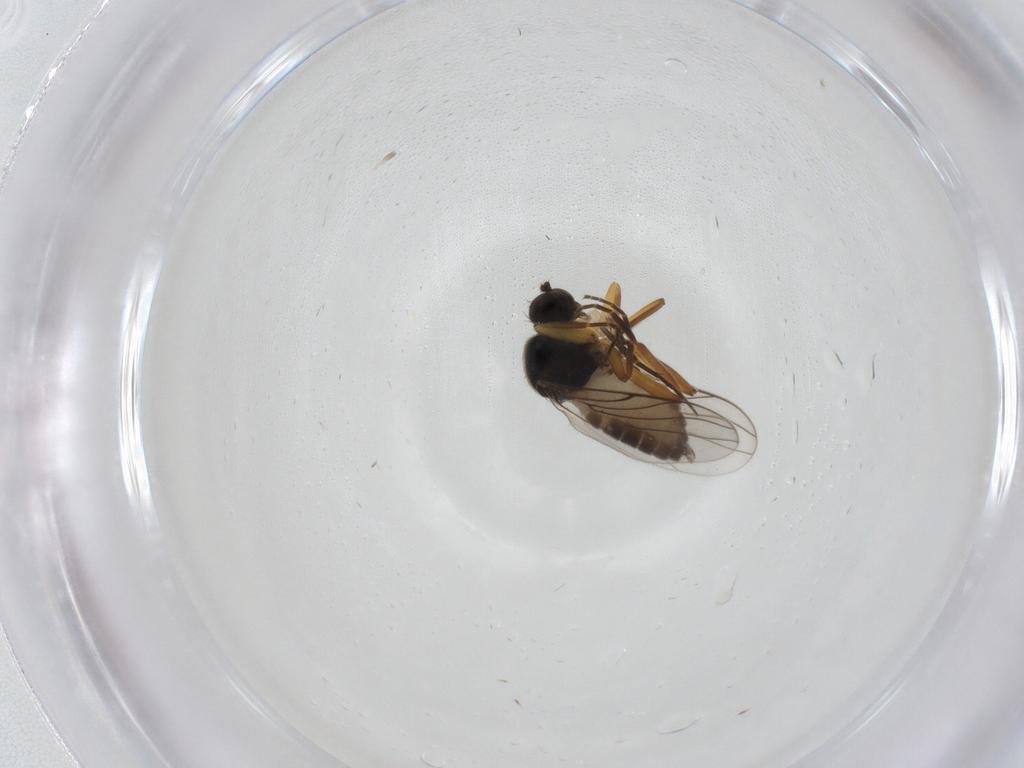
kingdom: Animalia
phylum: Arthropoda
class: Insecta
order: Diptera
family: Hybotidae
